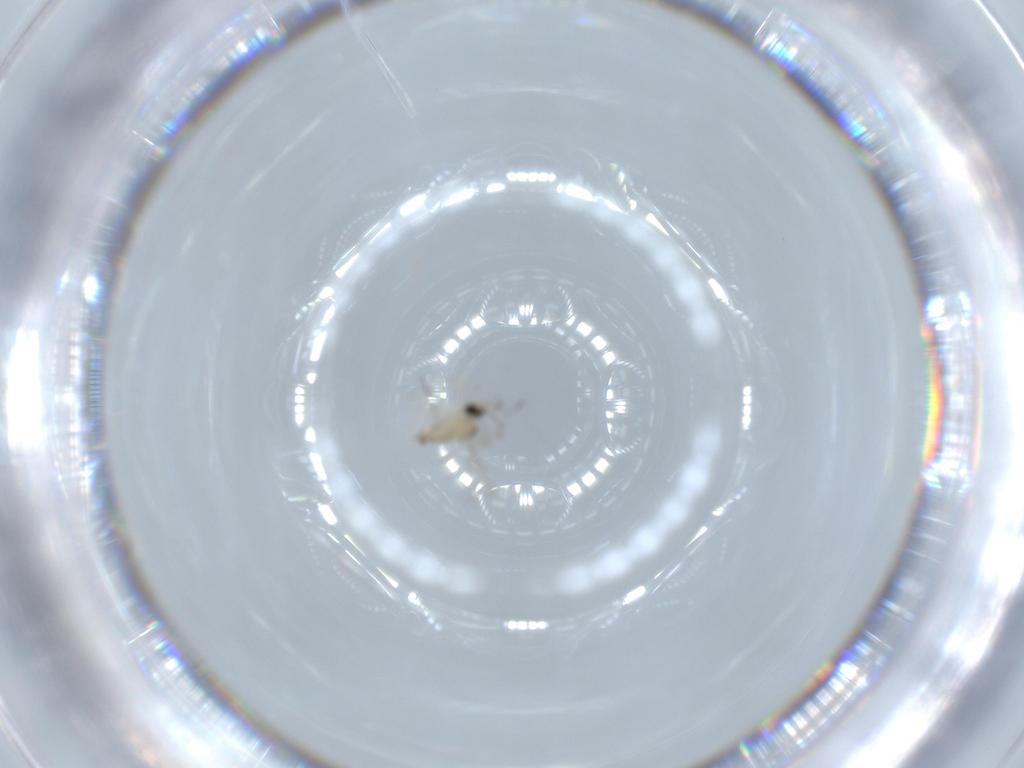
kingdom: Animalia
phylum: Arthropoda
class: Insecta
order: Diptera
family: Cecidomyiidae
